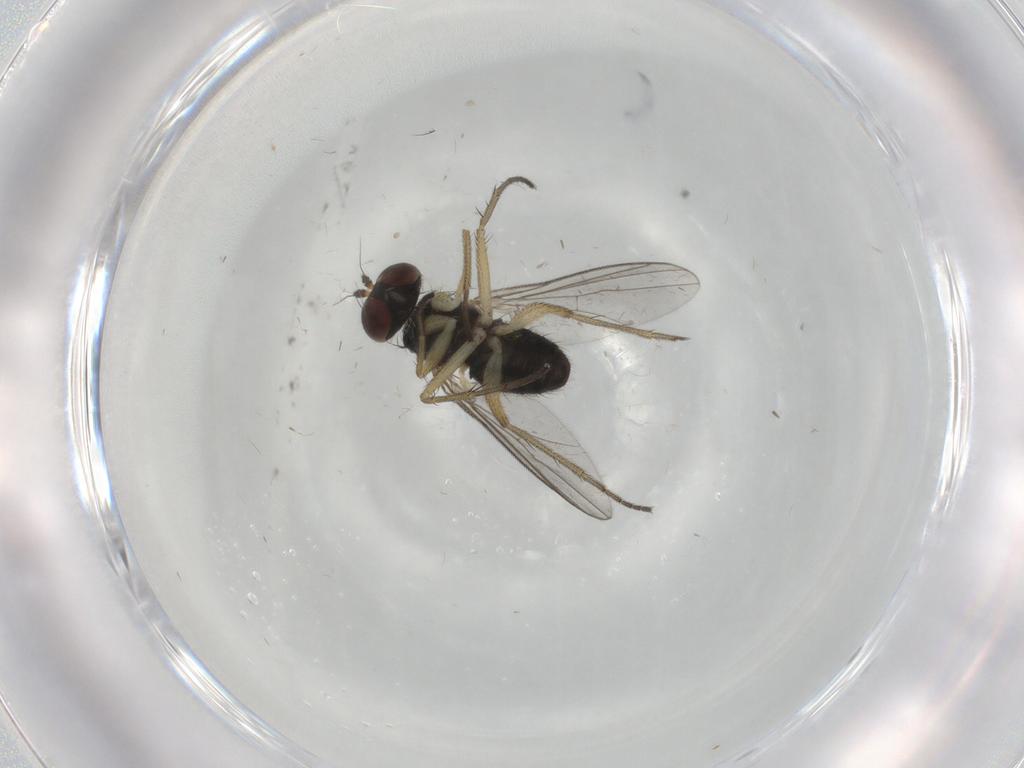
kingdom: Animalia
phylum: Arthropoda
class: Insecta
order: Diptera
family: Dolichopodidae
